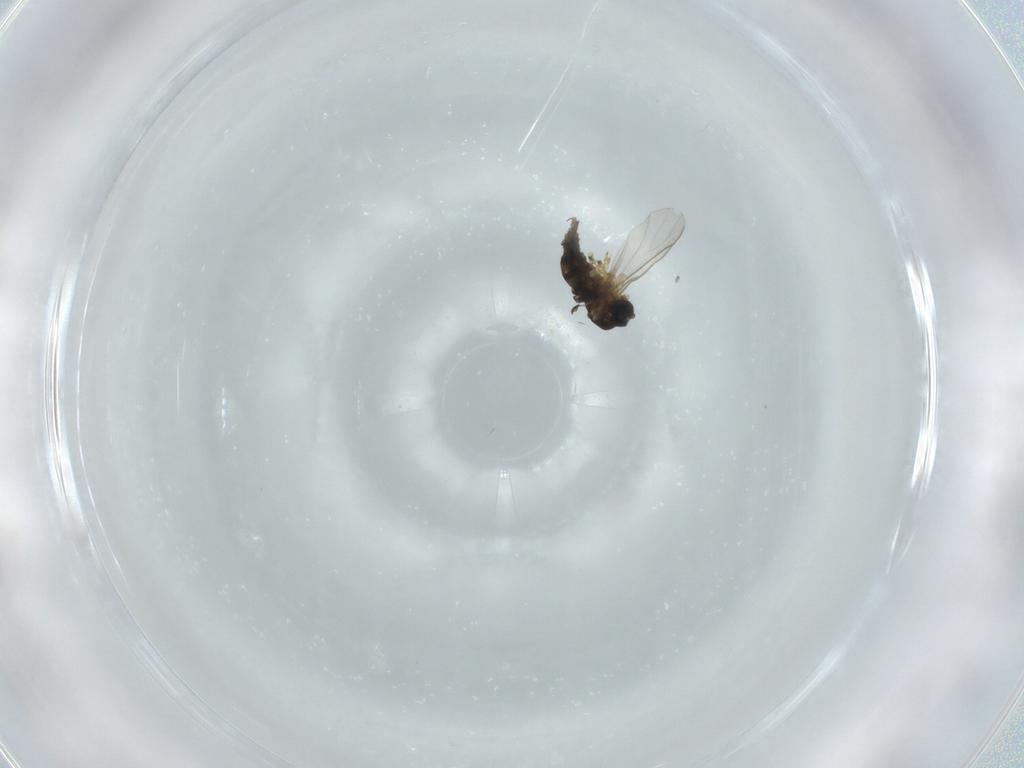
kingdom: Animalia
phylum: Arthropoda
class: Insecta
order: Diptera
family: Sciaridae
